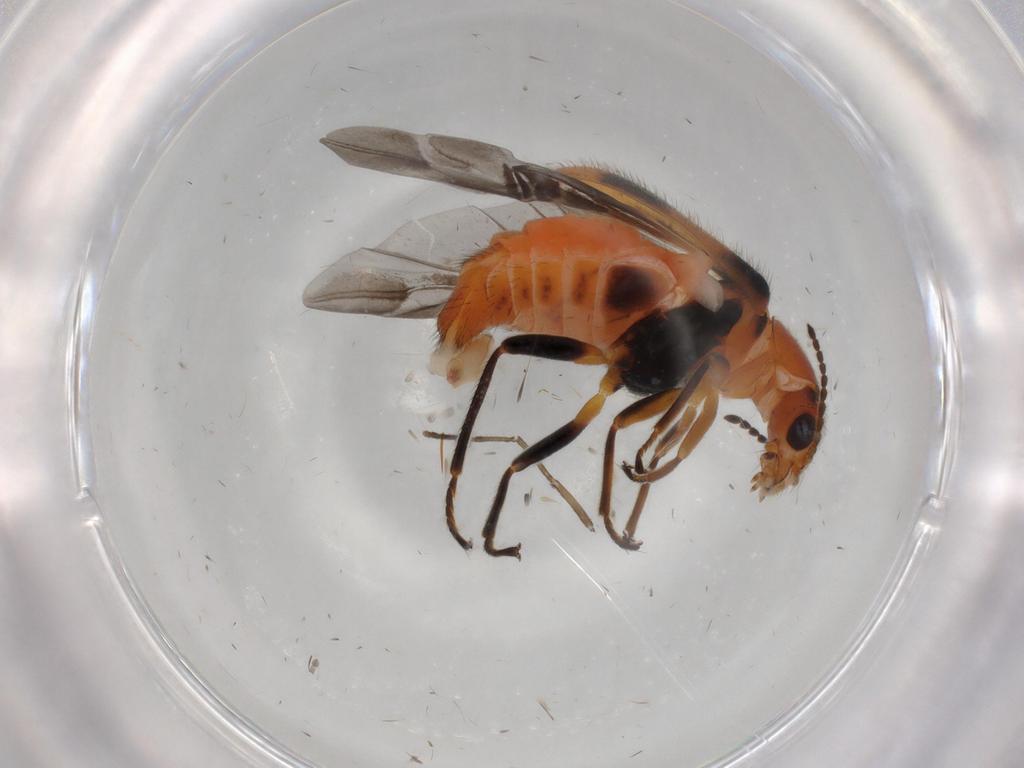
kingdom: Animalia
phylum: Arthropoda
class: Insecta
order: Coleoptera
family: Melyridae
